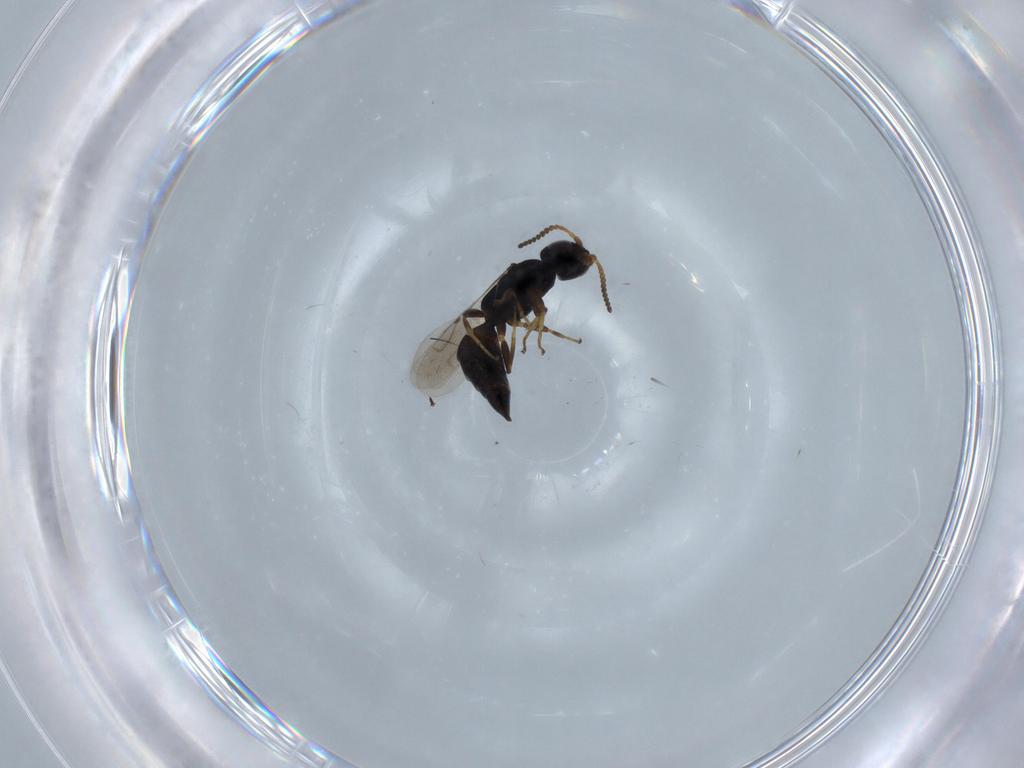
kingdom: Animalia
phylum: Arthropoda
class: Insecta
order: Hymenoptera
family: Bethylidae
